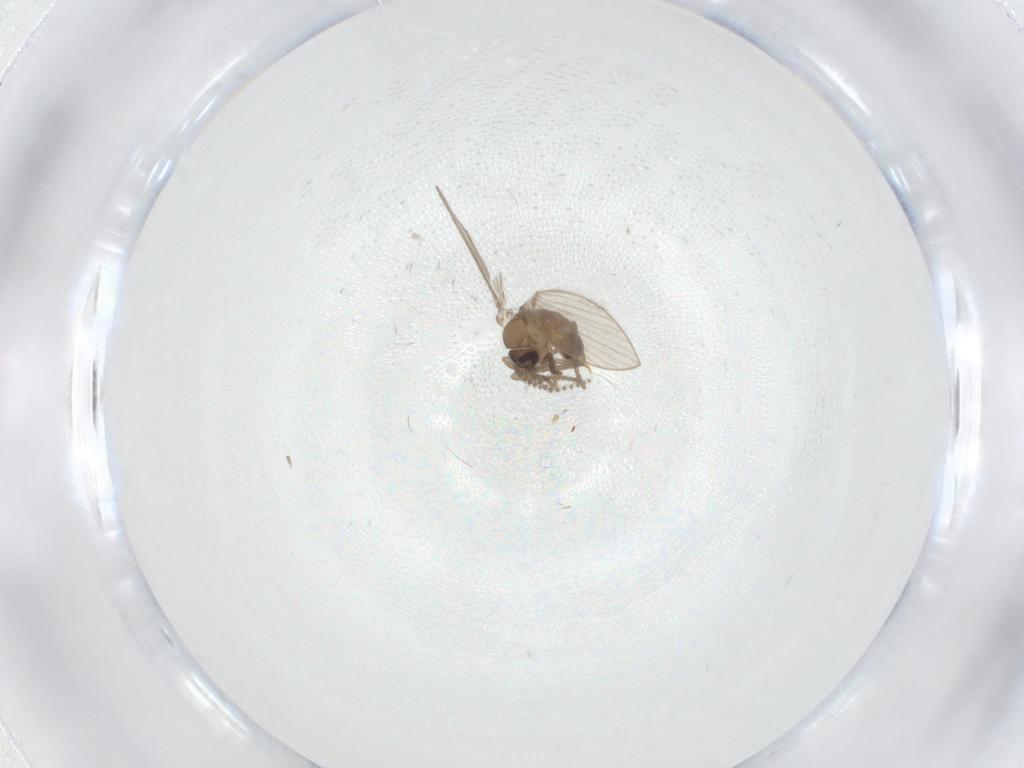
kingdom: Animalia
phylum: Arthropoda
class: Insecta
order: Diptera
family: Psychodidae
